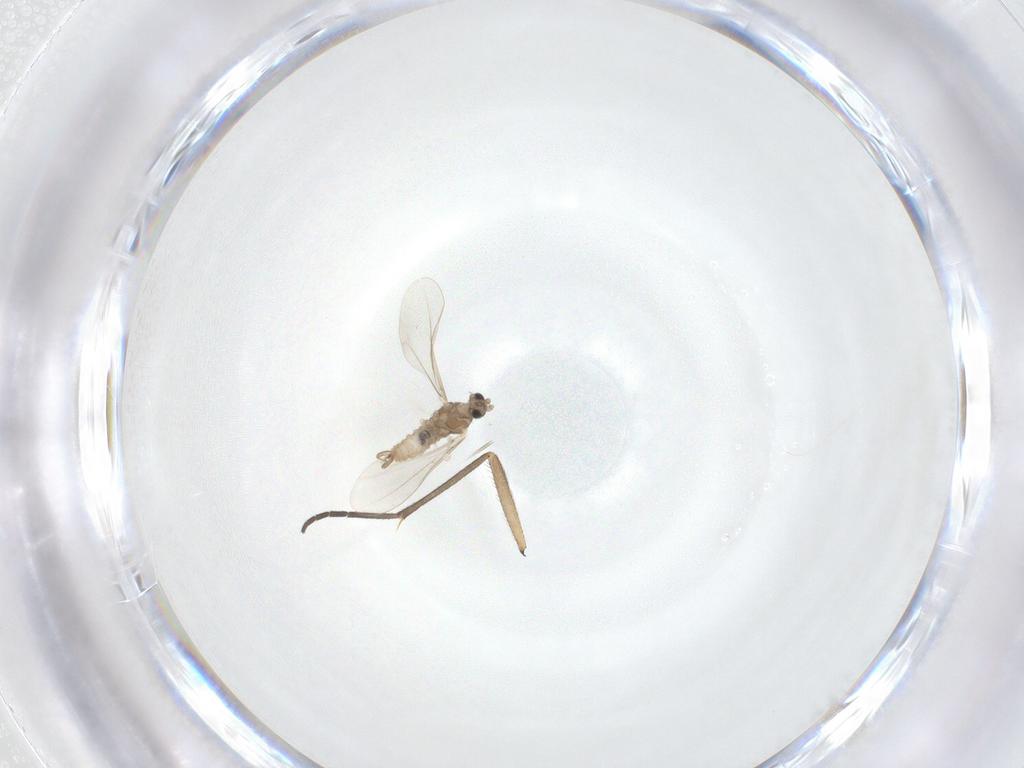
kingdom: Animalia
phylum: Arthropoda
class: Insecta
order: Diptera
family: Cecidomyiidae
